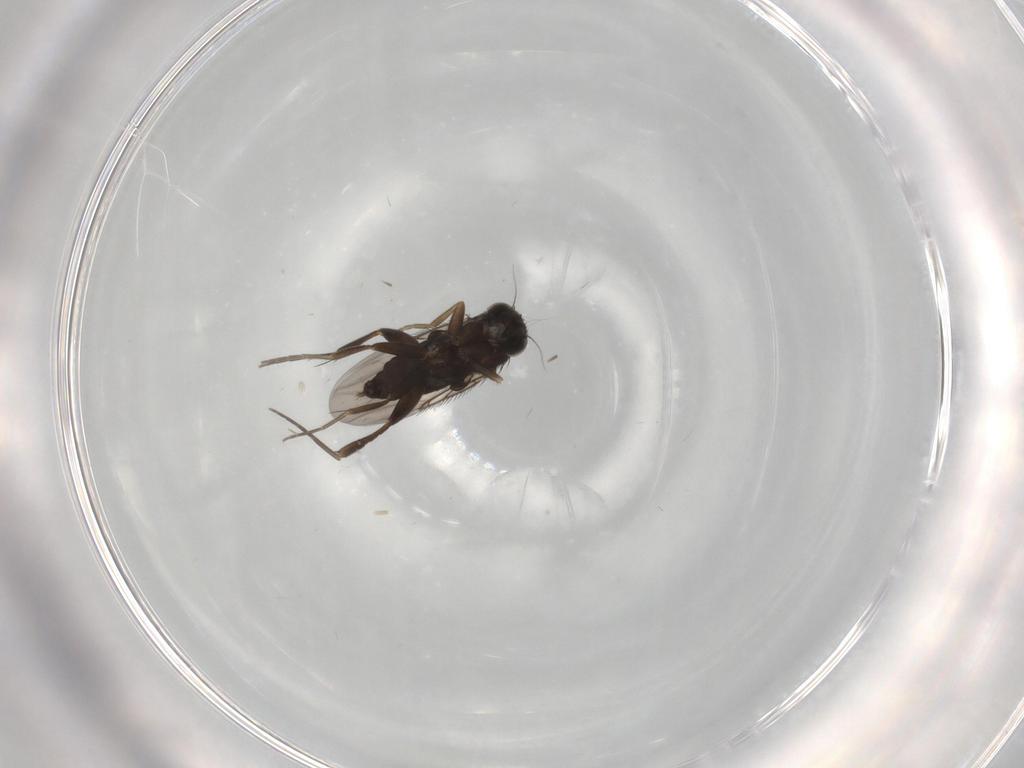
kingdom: Animalia
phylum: Arthropoda
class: Insecta
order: Diptera
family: Phoridae
